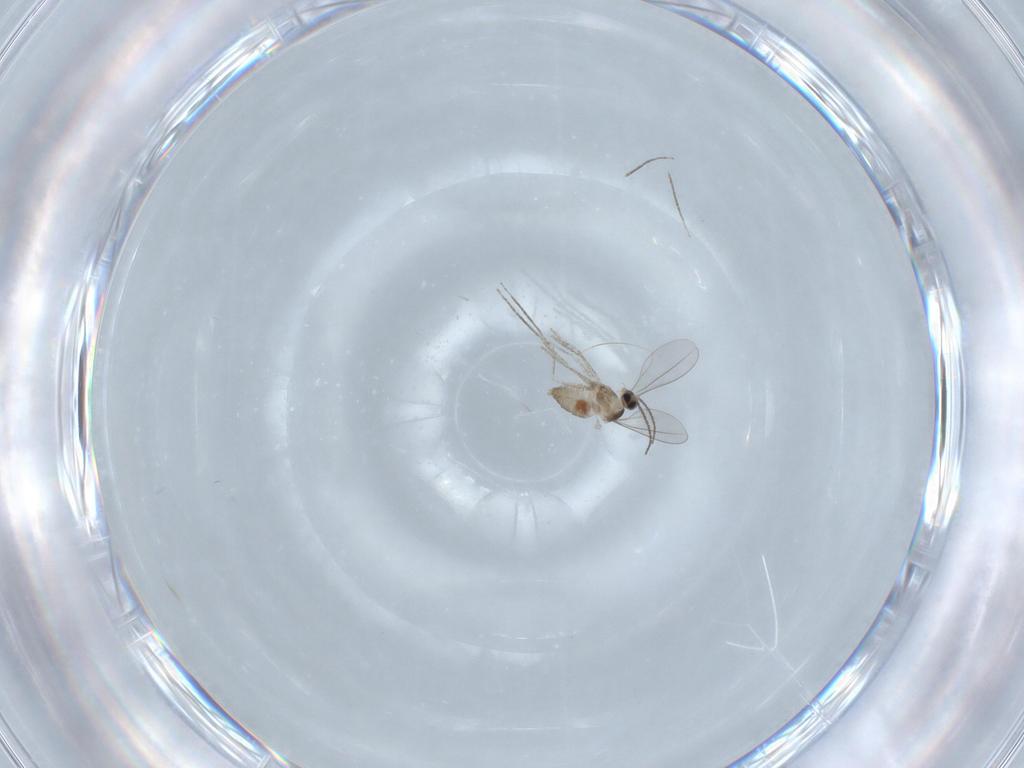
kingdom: Animalia
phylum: Arthropoda
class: Insecta
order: Diptera
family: Cecidomyiidae
